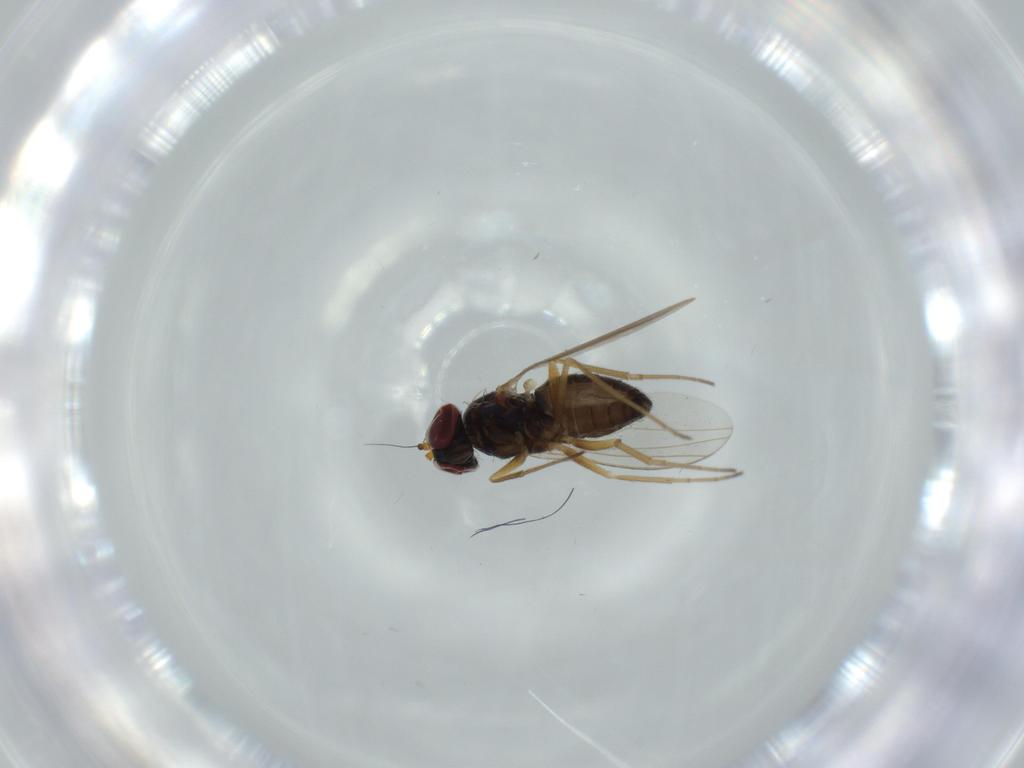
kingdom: Animalia
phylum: Arthropoda
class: Insecta
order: Diptera
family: Dolichopodidae
